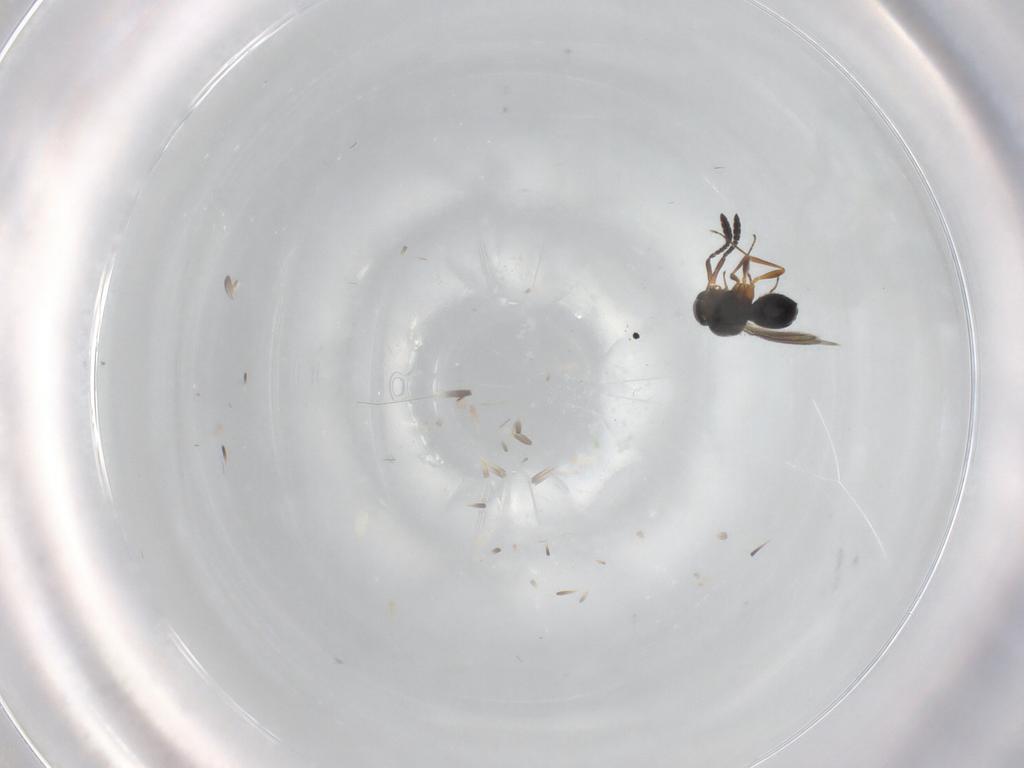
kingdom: Animalia
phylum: Arthropoda
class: Insecta
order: Hymenoptera
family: Scelionidae
